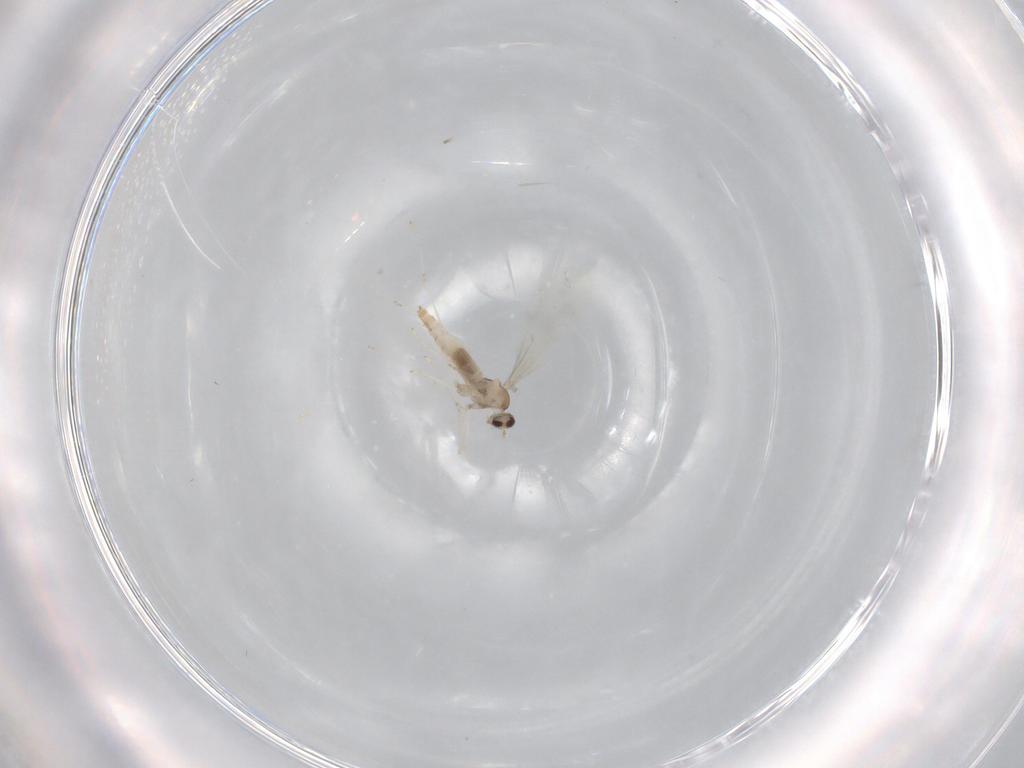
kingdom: Animalia
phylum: Arthropoda
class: Insecta
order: Diptera
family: Cecidomyiidae
